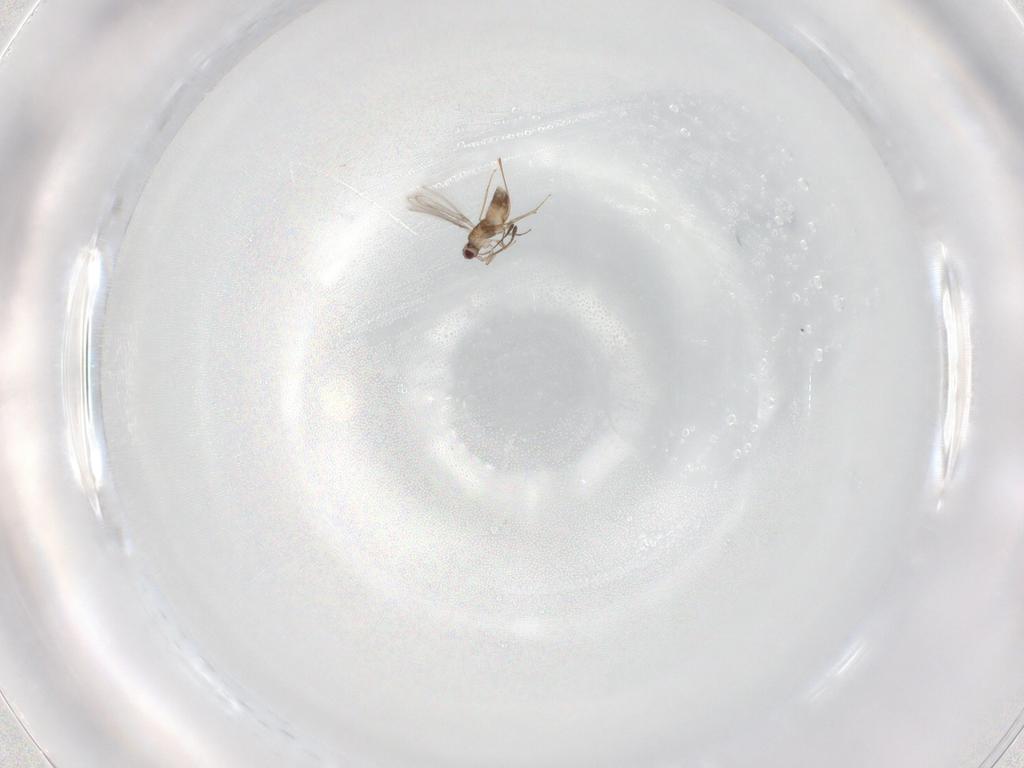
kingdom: Animalia
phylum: Arthropoda
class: Insecta
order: Hymenoptera
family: Mymaridae
